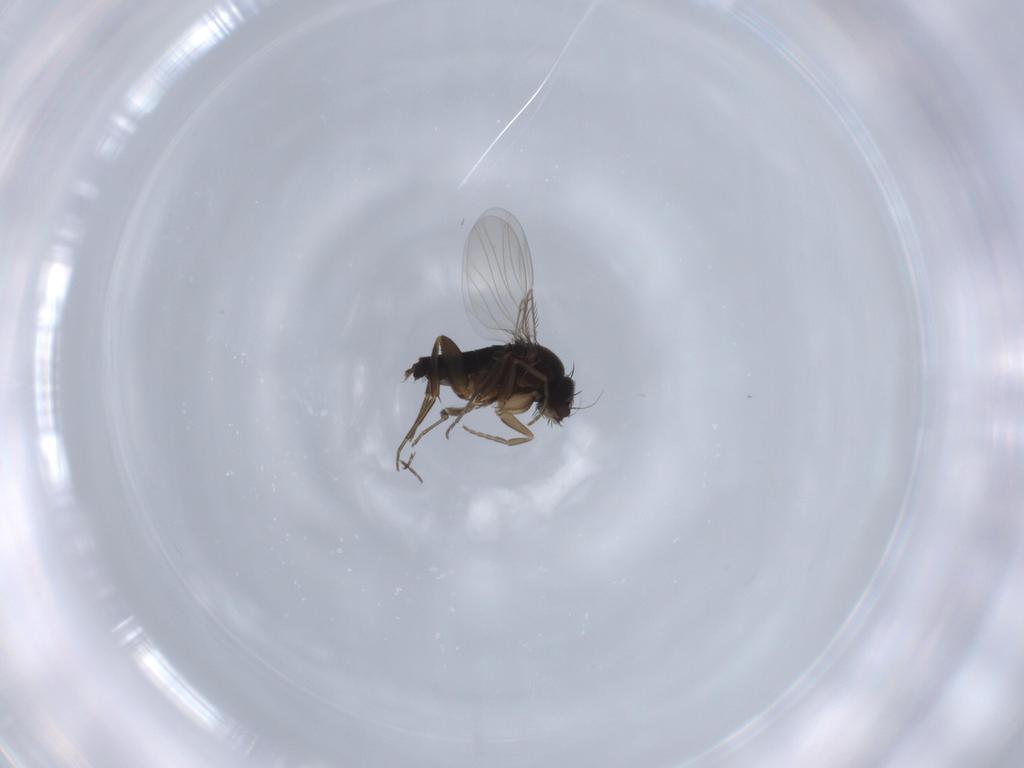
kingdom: Animalia
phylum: Arthropoda
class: Insecta
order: Diptera
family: Phoridae
